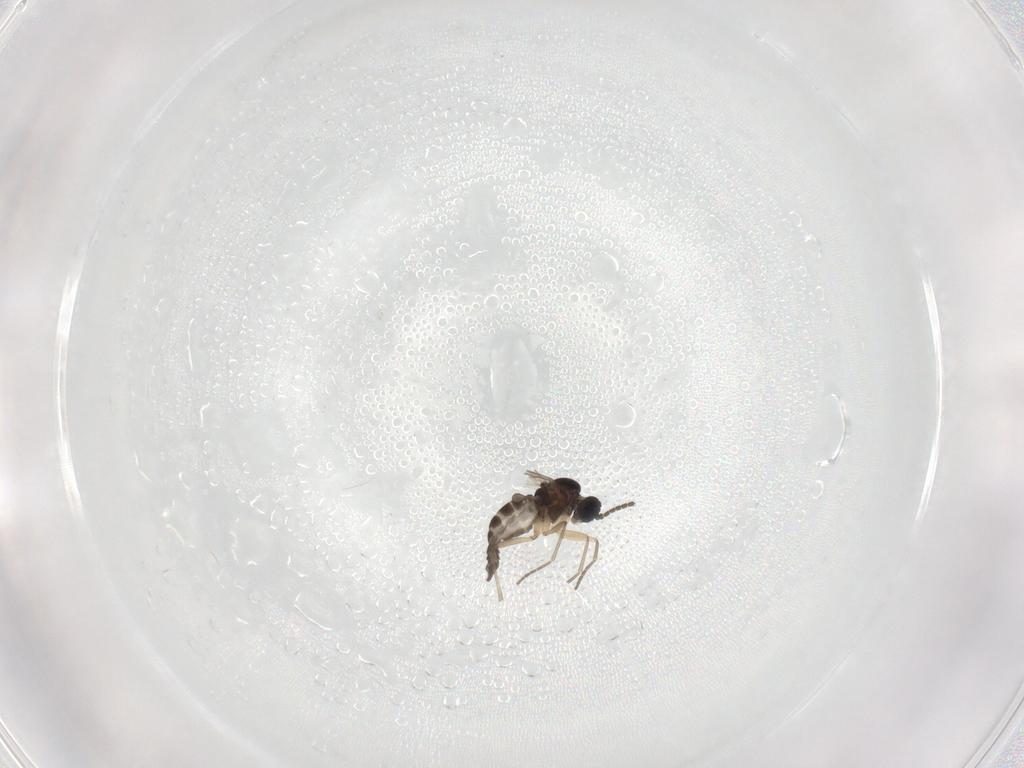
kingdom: Animalia
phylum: Arthropoda
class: Insecta
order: Diptera
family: Sciaridae
